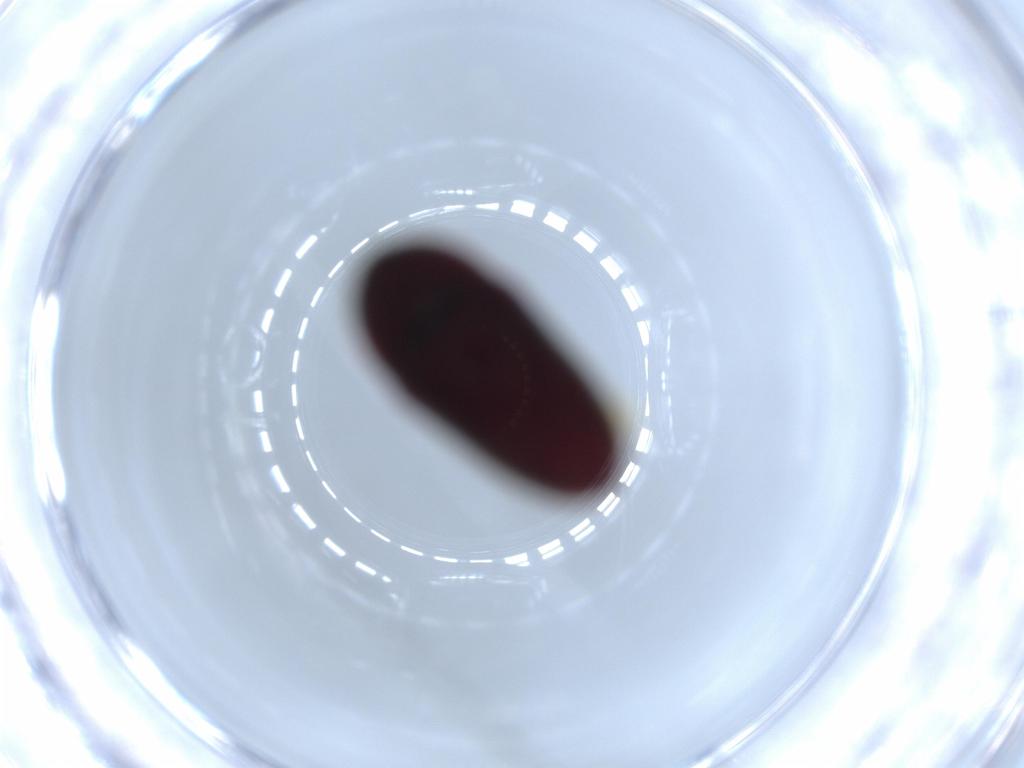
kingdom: Animalia
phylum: Arthropoda
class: Insecta
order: Coleoptera
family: Throscidae
